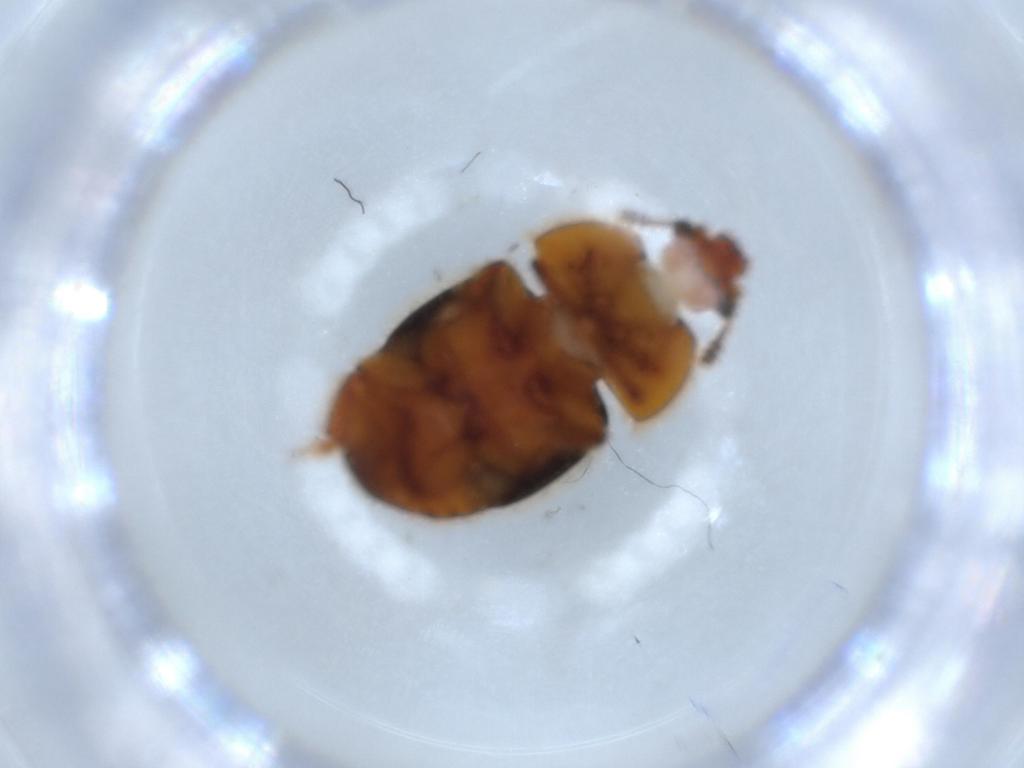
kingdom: Animalia
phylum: Arthropoda
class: Insecta
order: Coleoptera
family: Nitidulidae
